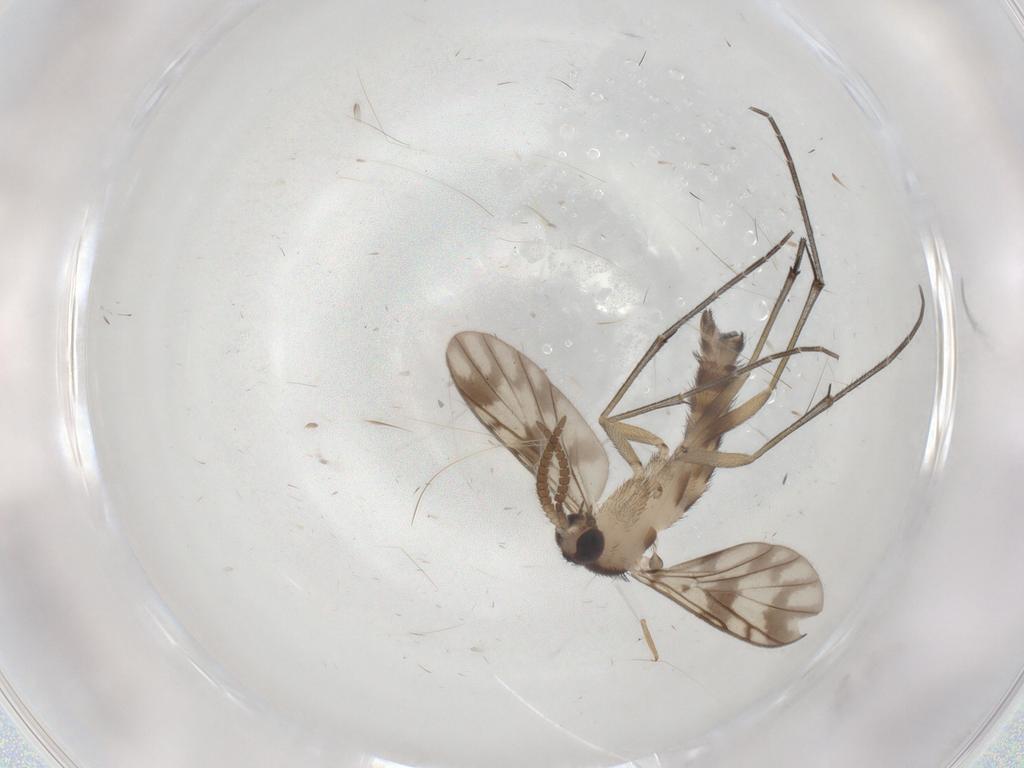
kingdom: Animalia
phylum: Arthropoda
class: Insecta
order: Diptera
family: Keroplatidae
